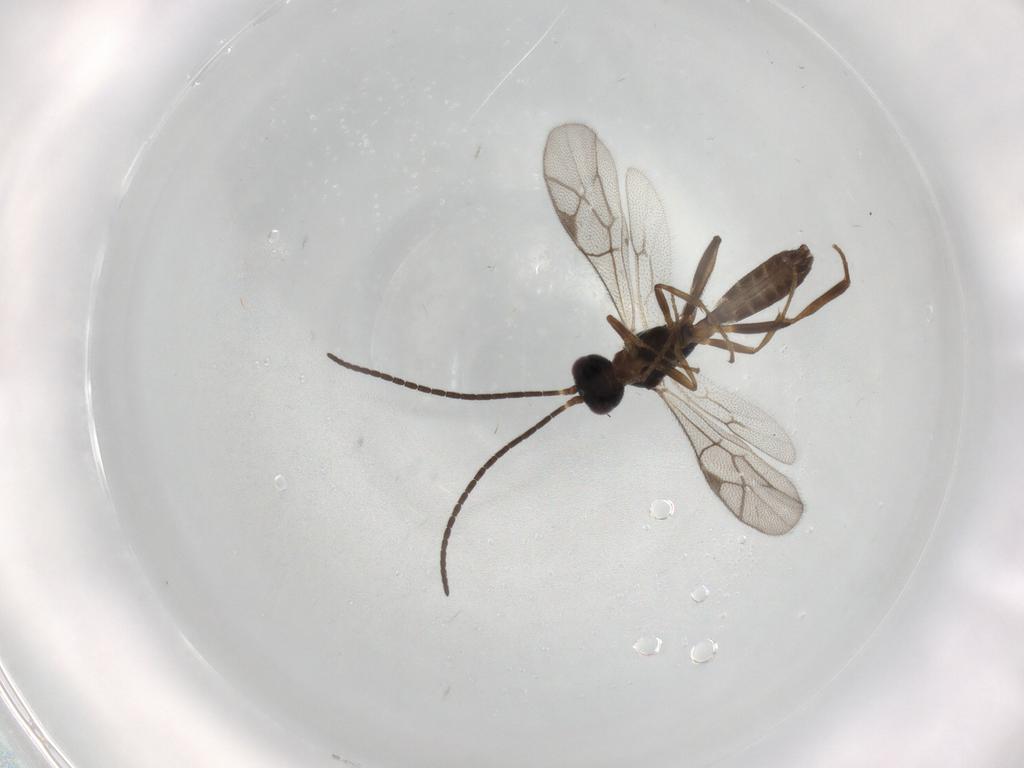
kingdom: Animalia
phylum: Arthropoda
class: Insecta
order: Hymenoptera
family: Ichneumonidae
